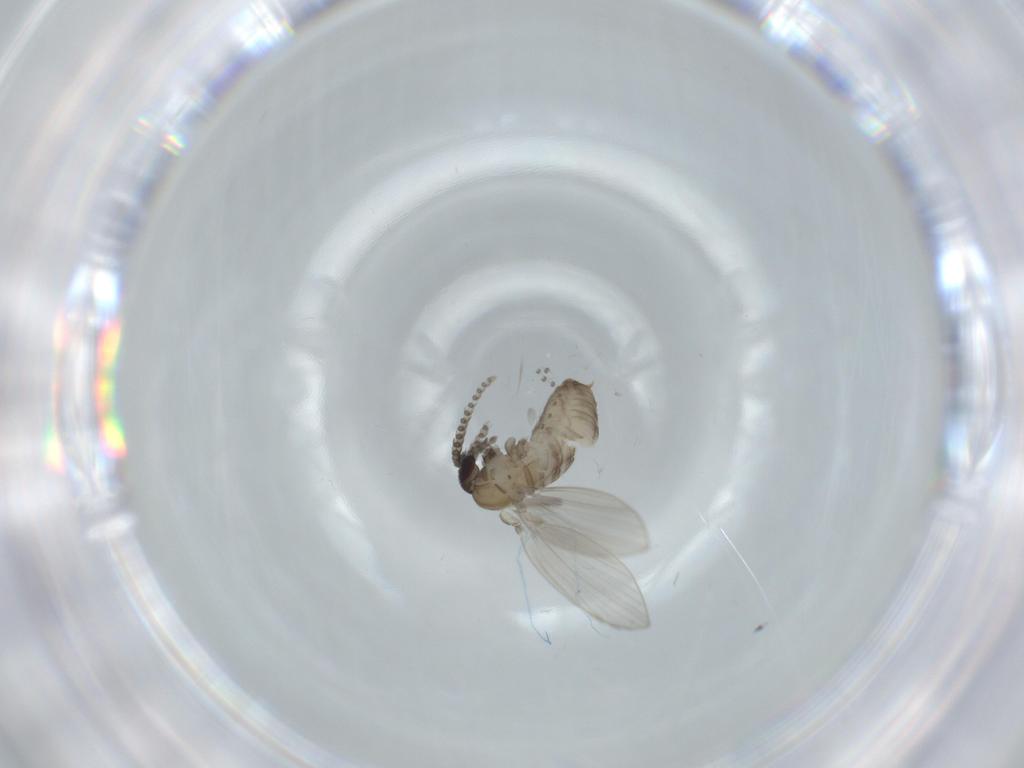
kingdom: Animalia
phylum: Arthropoda
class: Insecta
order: Diptera
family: Psychodidae
